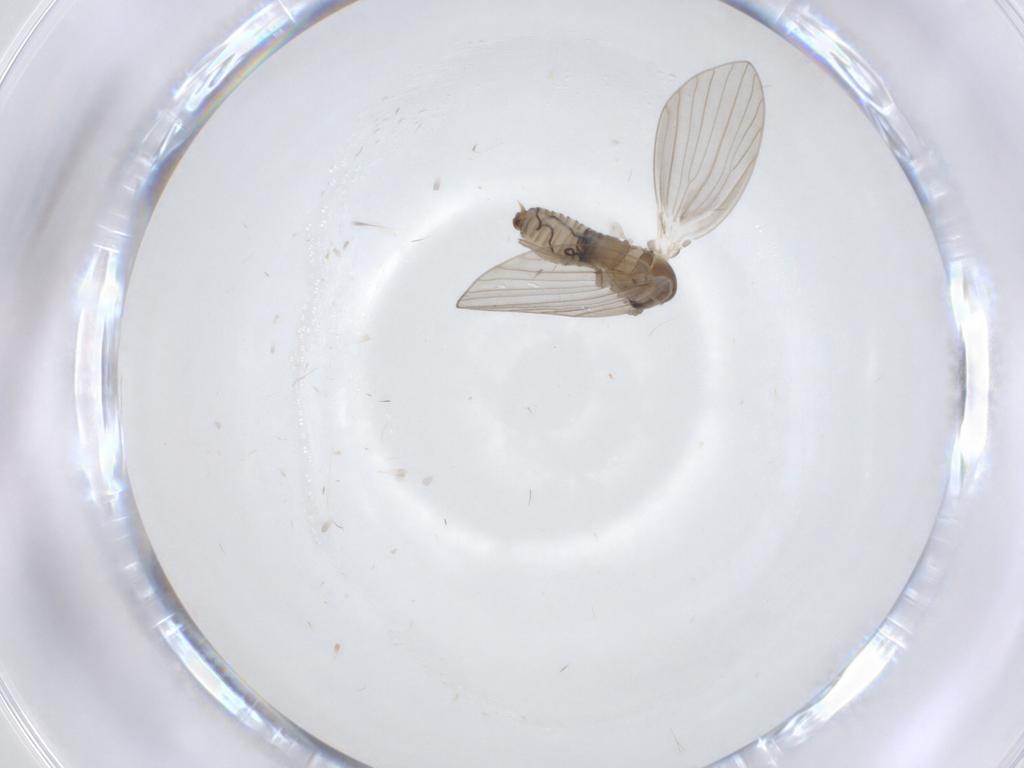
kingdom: Animalia
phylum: Arthropoda
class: Insecta
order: Diptera
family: Psychodidae
